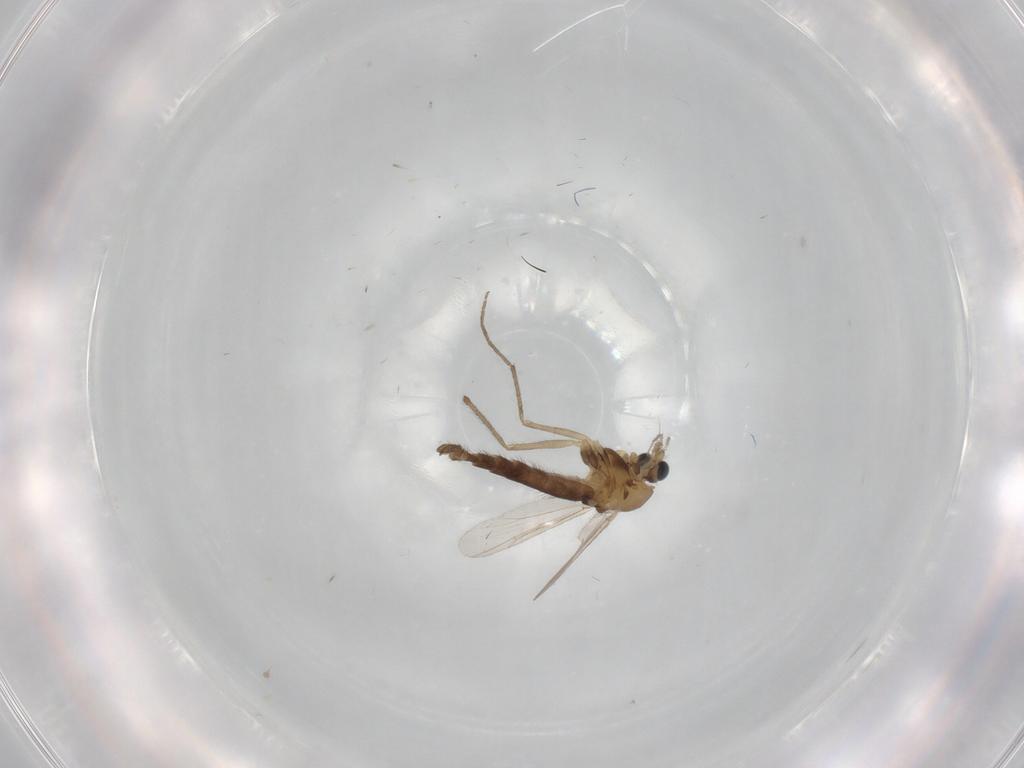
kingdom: Animalia
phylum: Arthropoda
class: Insecta
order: Diptera
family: Chironomidae
